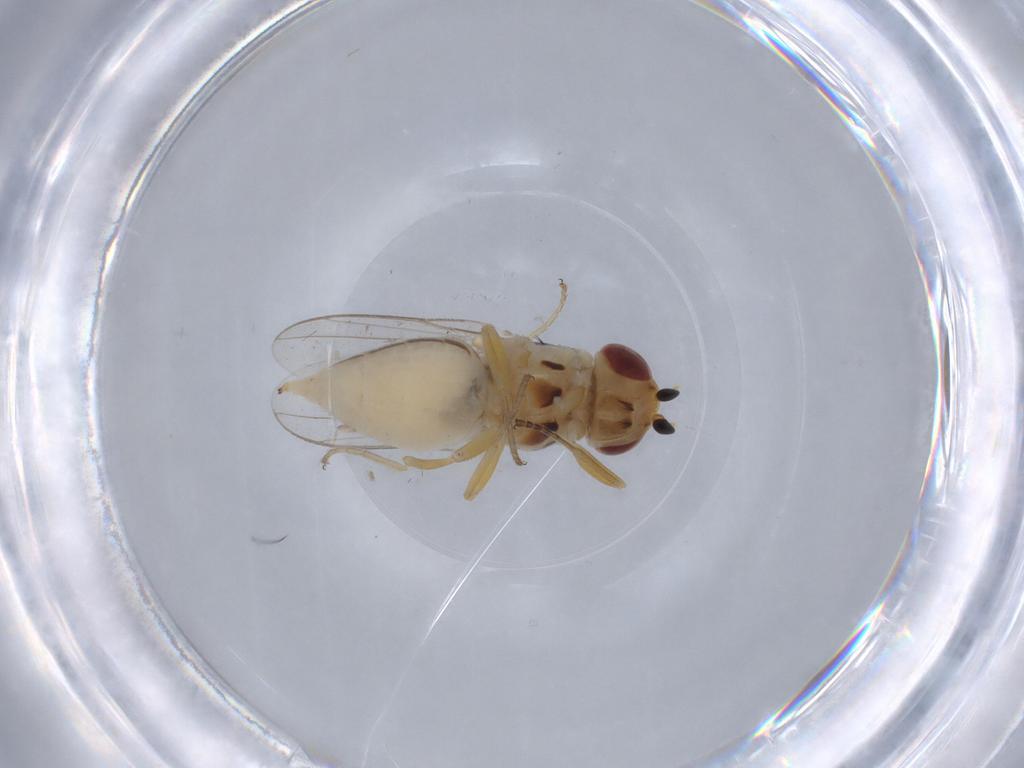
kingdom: Animalia
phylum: Arthropoda
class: Insecta
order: Diptera
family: Chloropidae
